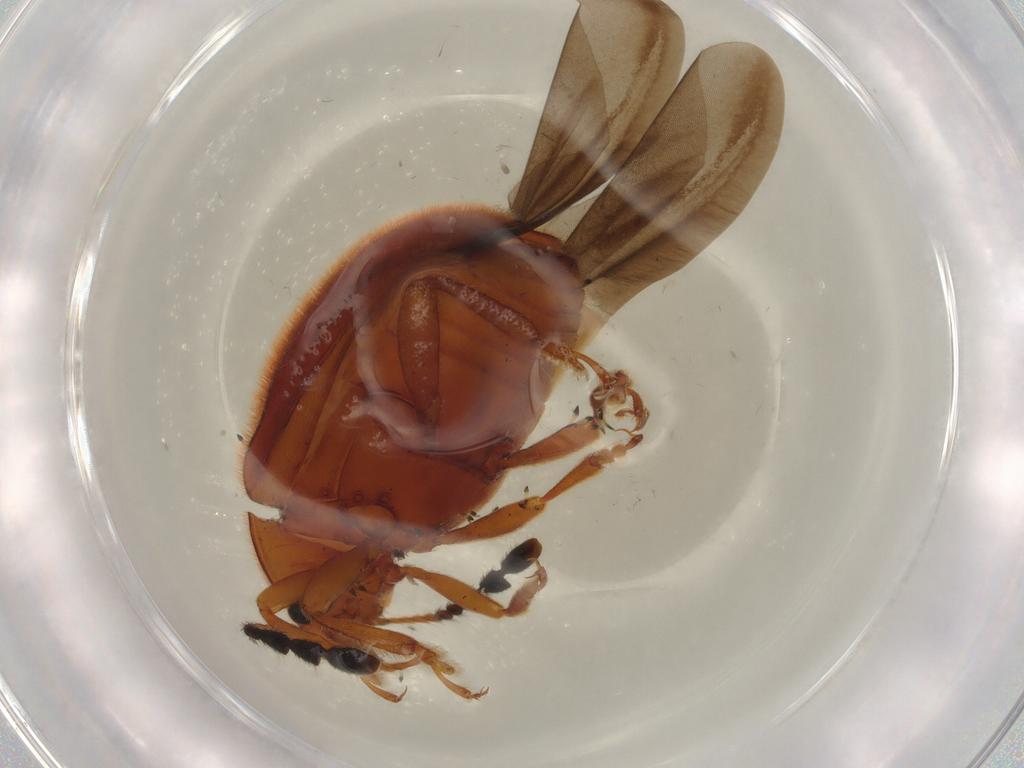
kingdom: Animalia
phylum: Arthropoda
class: Insecta
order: Coleoptera
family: Endomychidae
